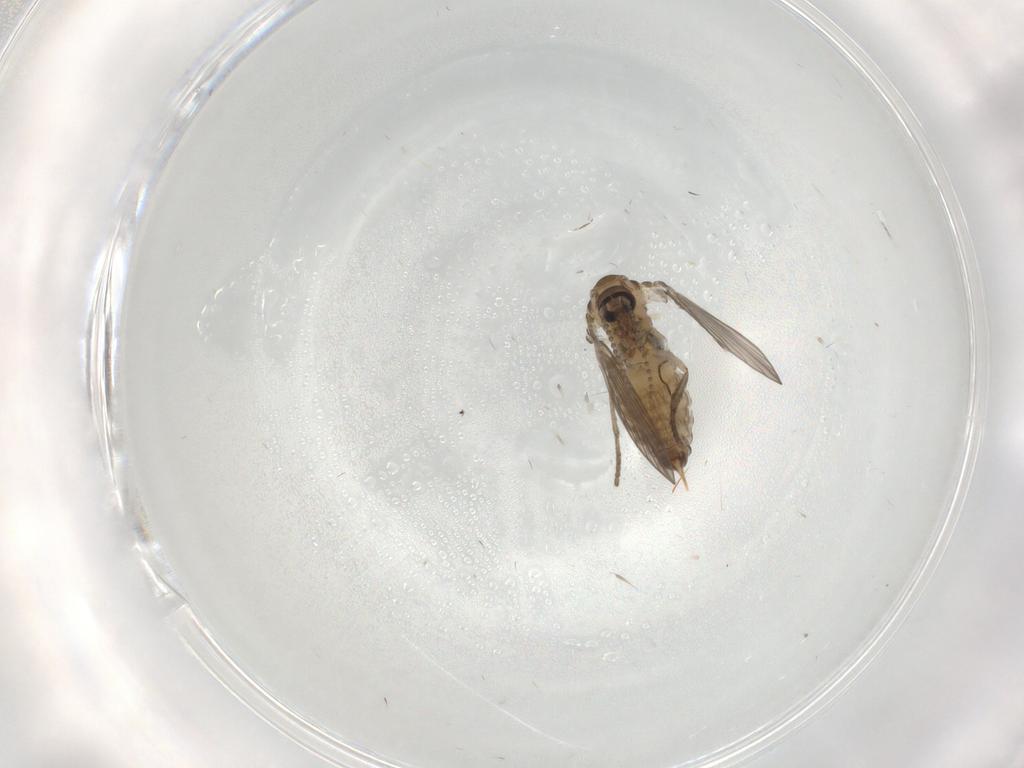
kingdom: Animalia
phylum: Arthropoda
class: Insecta
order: Diptera
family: Psychodidae
